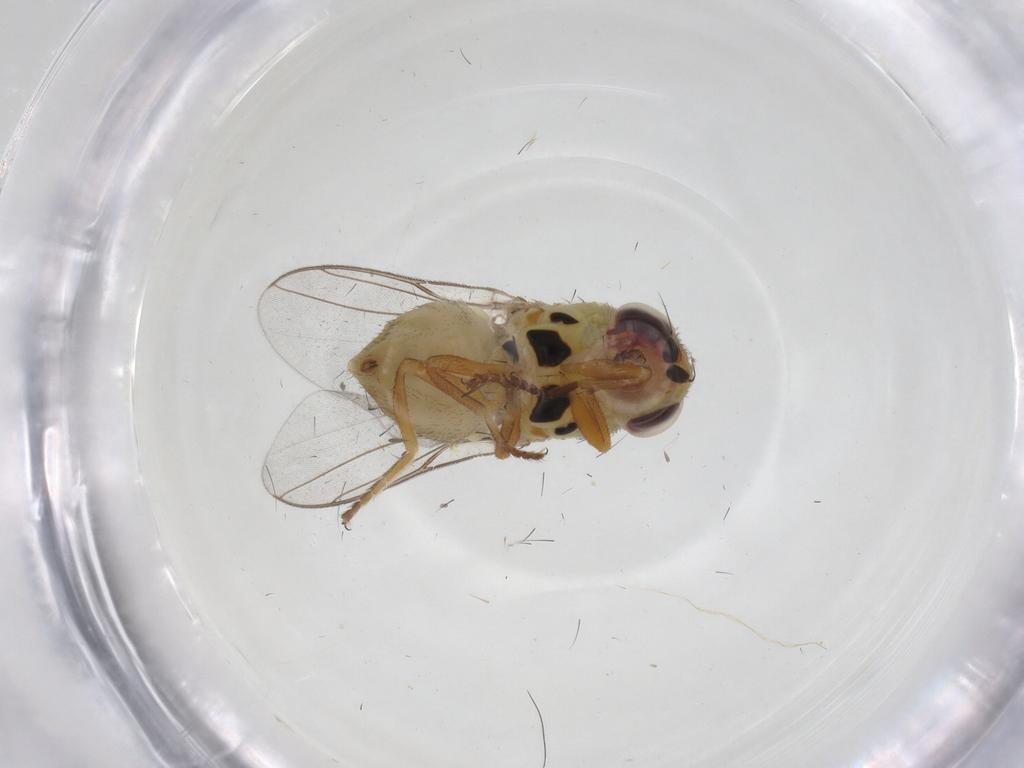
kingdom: Animalia
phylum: Arthropoda
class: Insecta
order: Diptera
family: Chloropidae
